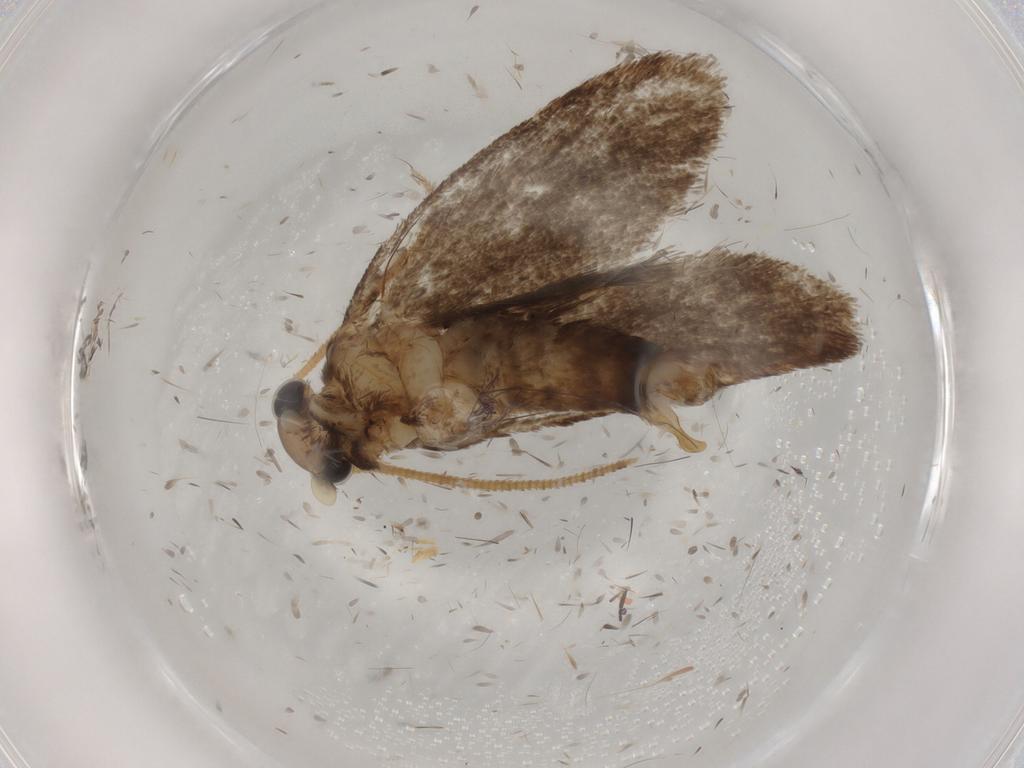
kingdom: Animalia
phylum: Arthropoda
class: Insecta
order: Lepidoptera
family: Tineidae
